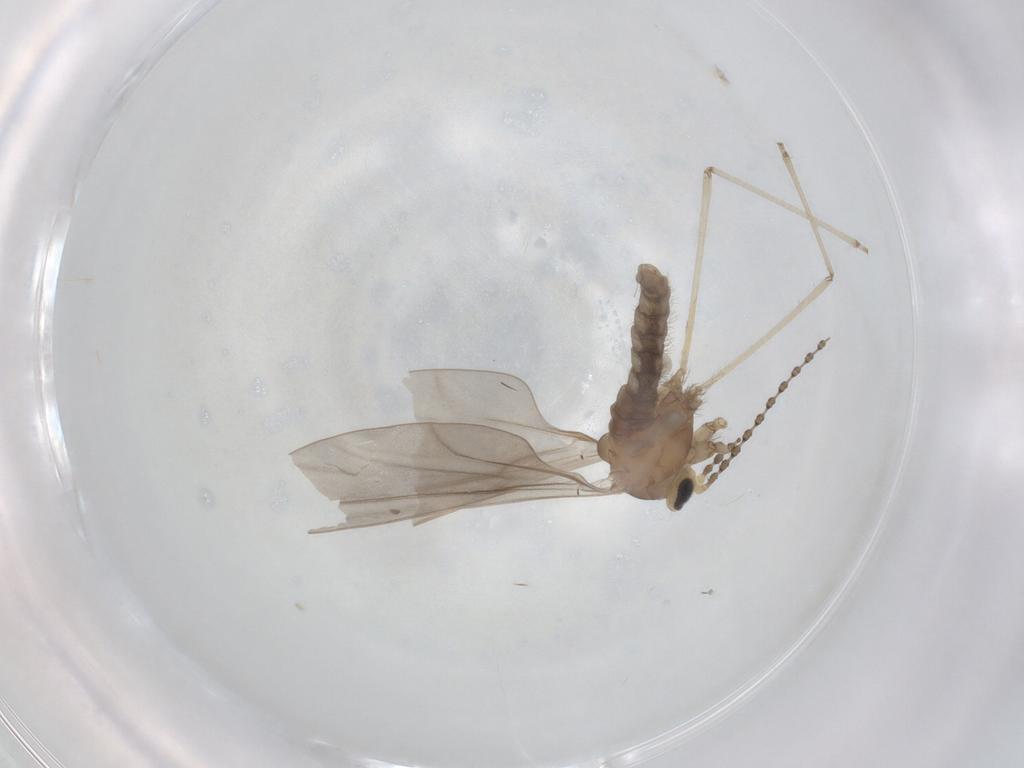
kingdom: Animalia
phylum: Arthropoda
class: Insecta
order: Diptera
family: Cecidomyiidae
